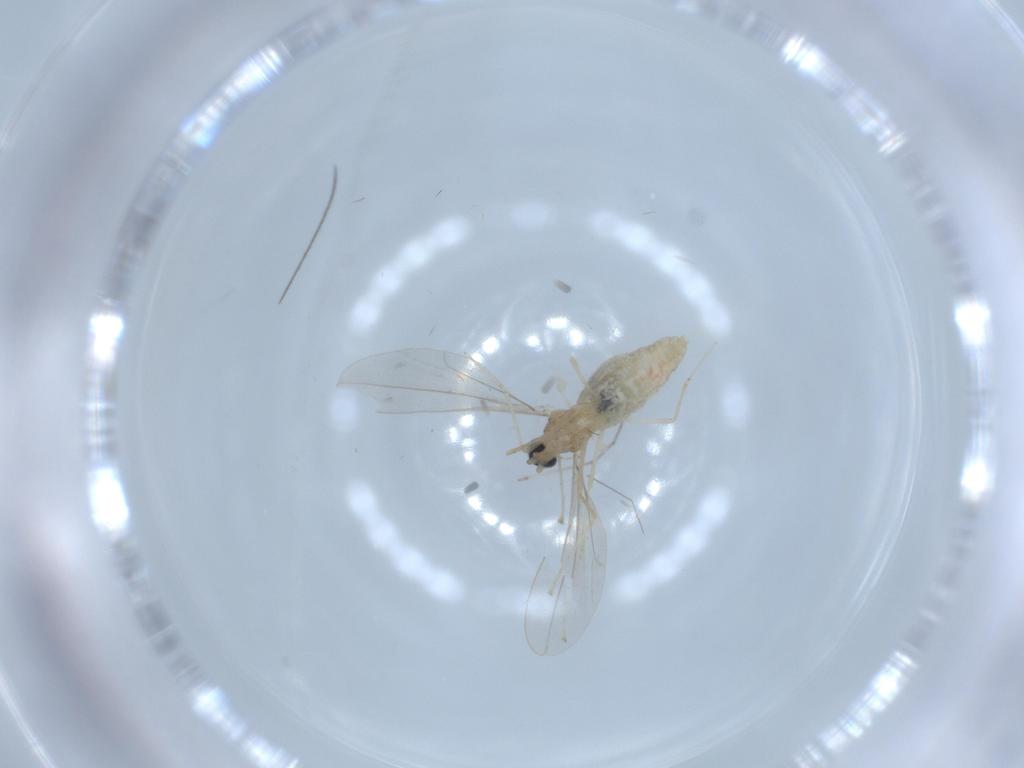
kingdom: Animalia
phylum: Arthropoda
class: Insecta
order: Diptera
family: Cecidomyiidae
